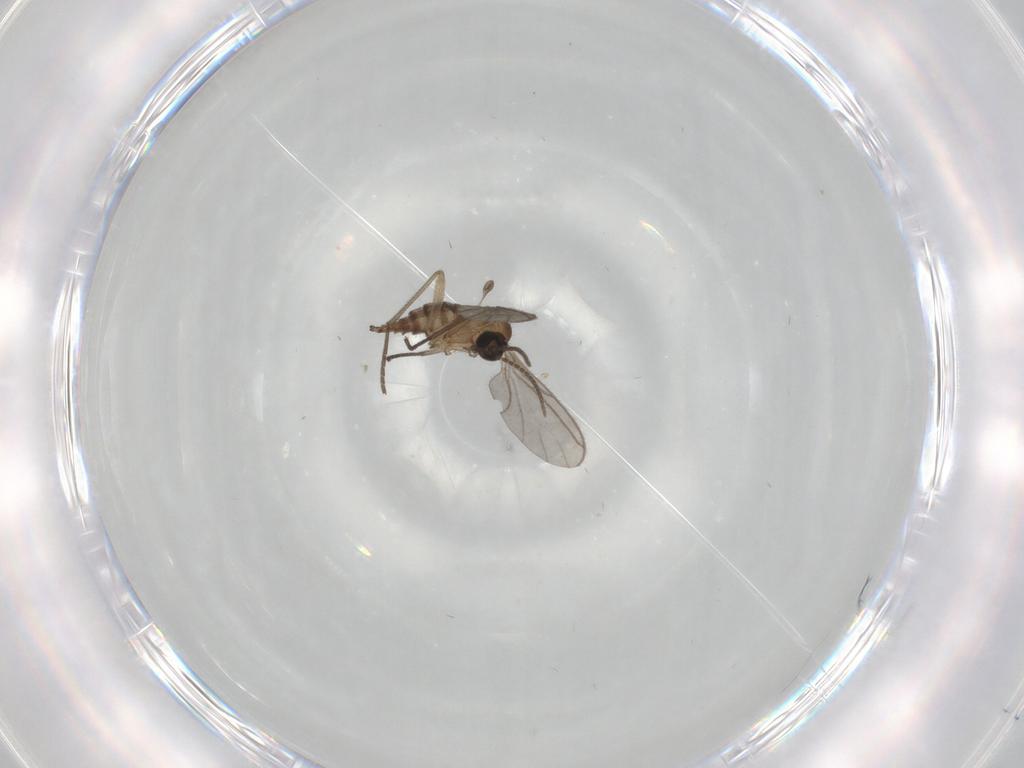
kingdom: Animalia
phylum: Arthropoda
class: Insecta
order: Diptera
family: Sciaridae
